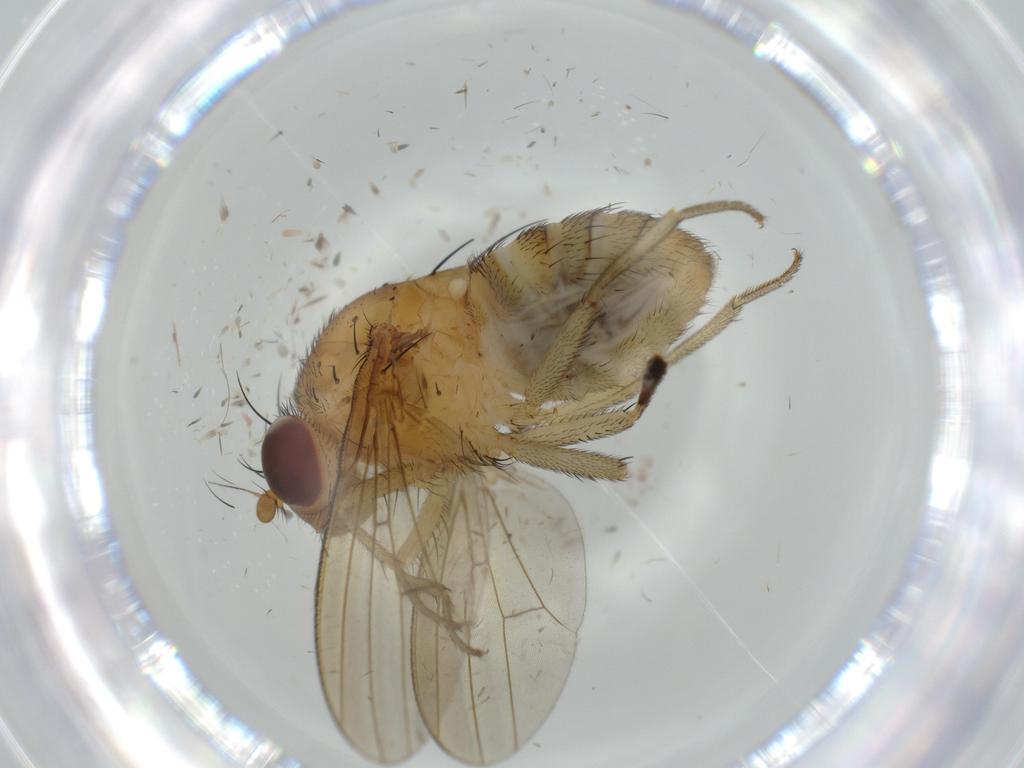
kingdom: Animalia
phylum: Arthropoda
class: Insecta
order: Diptera
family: Lauxaniidae
